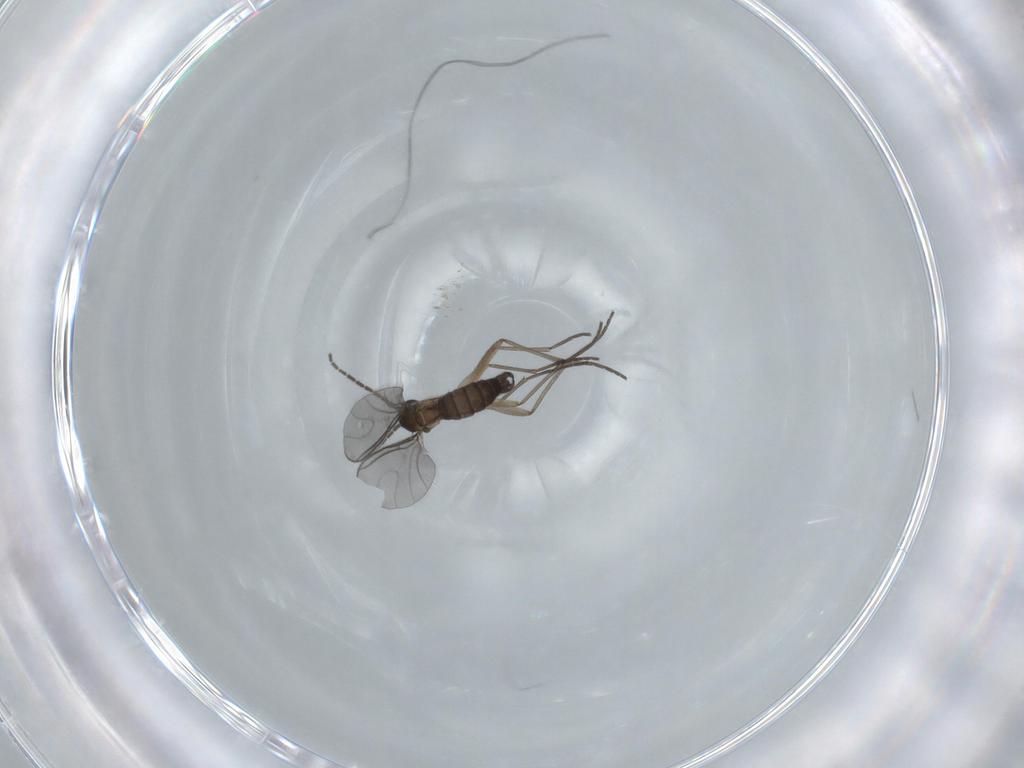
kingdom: Animalia
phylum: Arthropoda
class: Insecta
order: Diptera
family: Sciaridae
